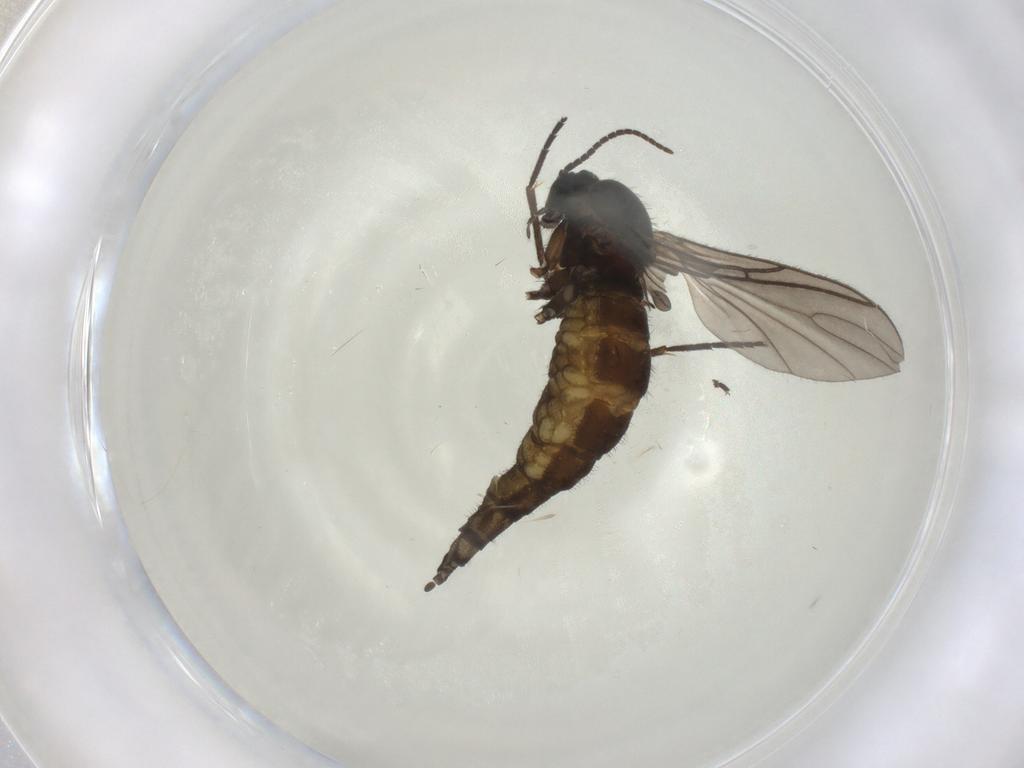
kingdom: Animalia
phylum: Arthropoda
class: Insecta
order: Diptera
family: Sciaridae
